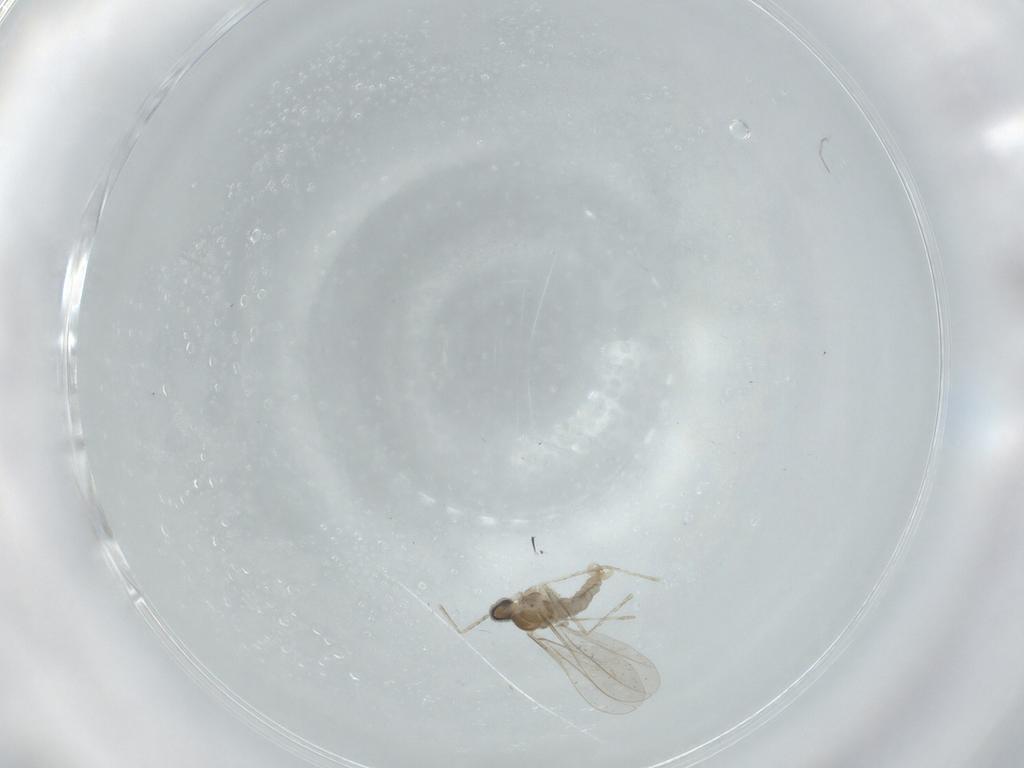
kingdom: Animalia
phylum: Arthropoda
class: Insecta
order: Diptera
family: Cecidomyiidae
